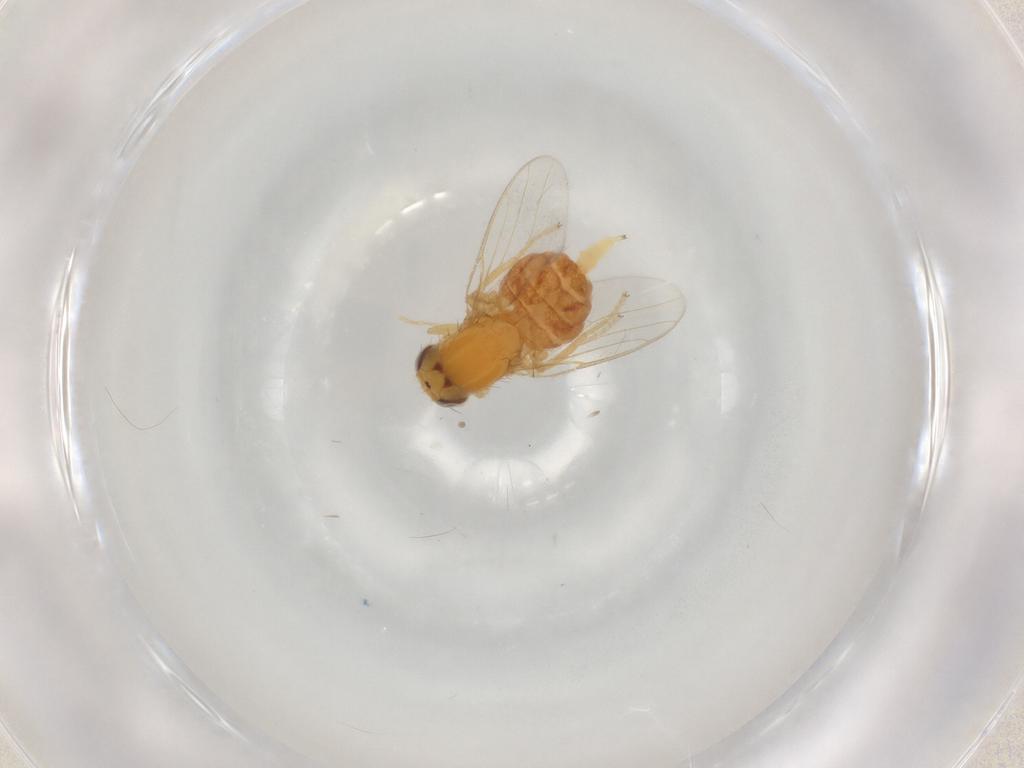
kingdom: Animalia
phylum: Arthropoda
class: Insecta
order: Diptera
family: Chloropidae
